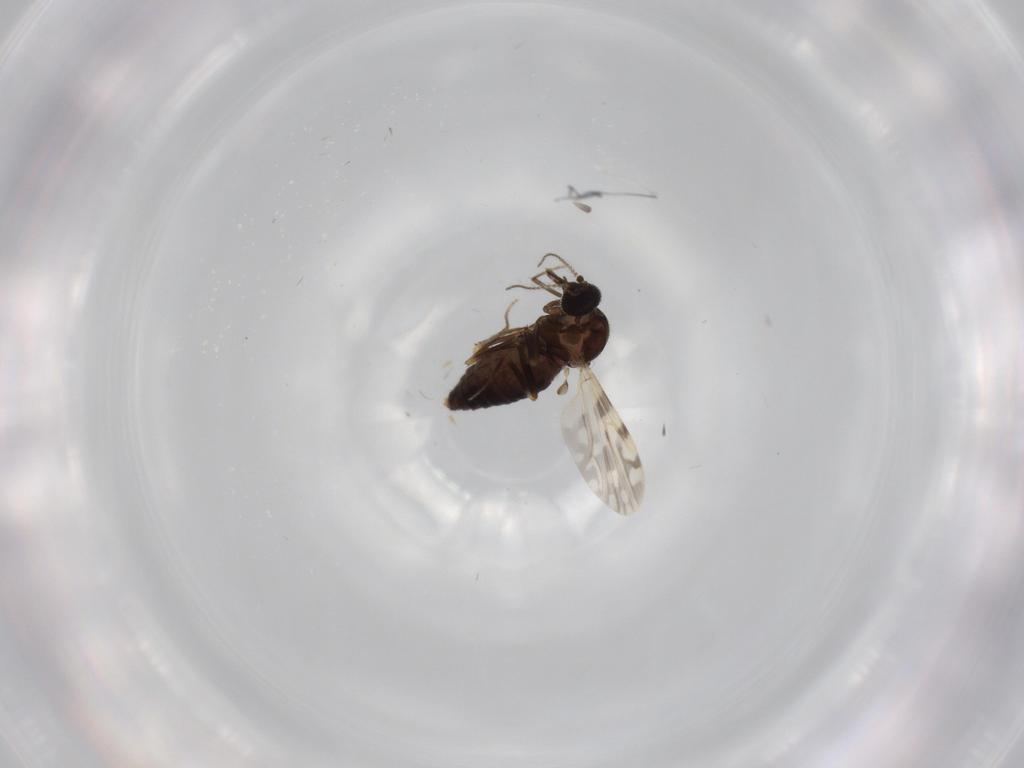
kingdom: Animalia
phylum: Arthropoda
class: Insecta
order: Diptera
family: Ceratopogonidae
